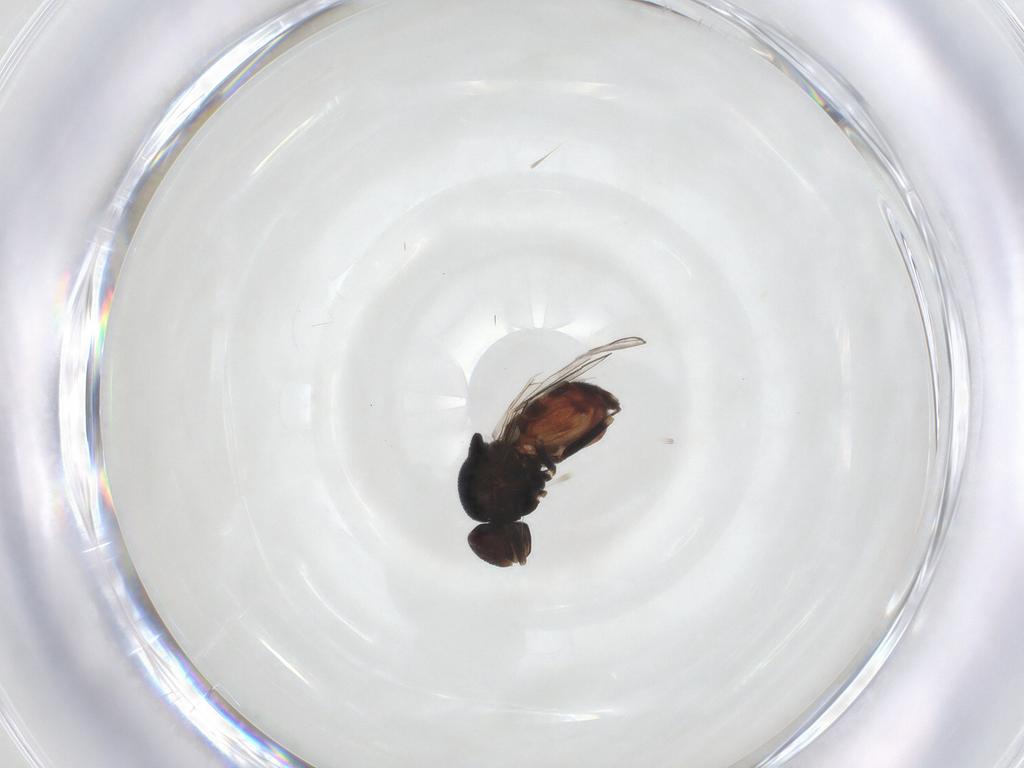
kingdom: Animalia
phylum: Arthropoda
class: Insecta
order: Diptera
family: Chloropidae
